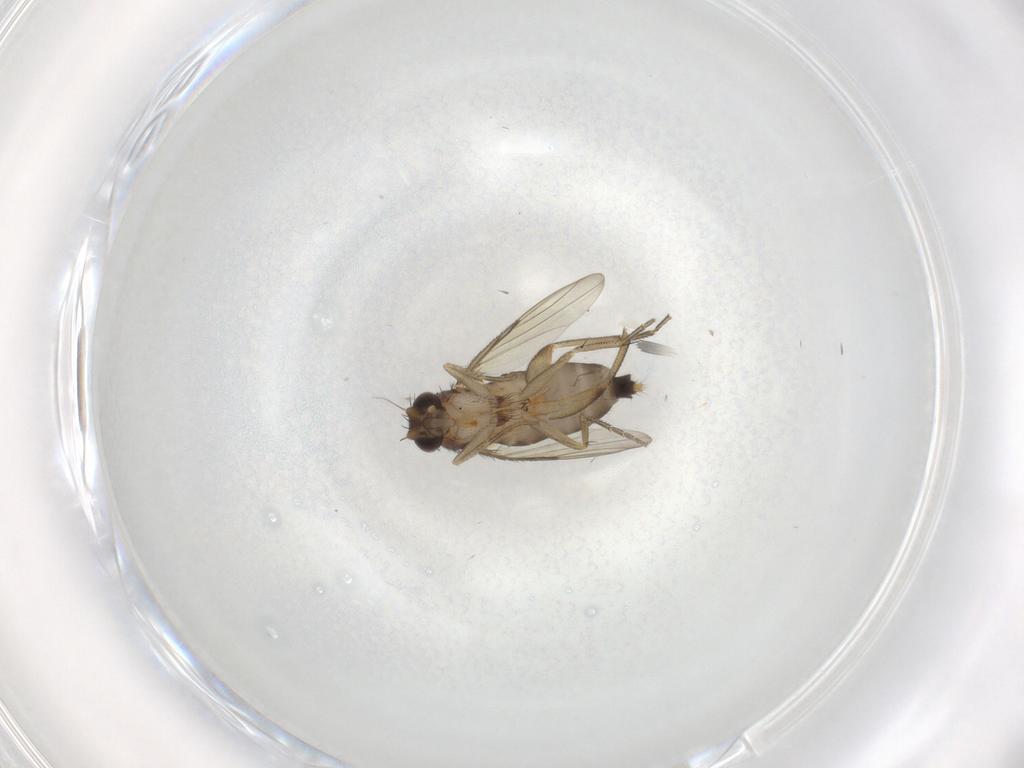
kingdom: Animalia
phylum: Arthropoda
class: Insecta
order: Diptera
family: Phoridae
